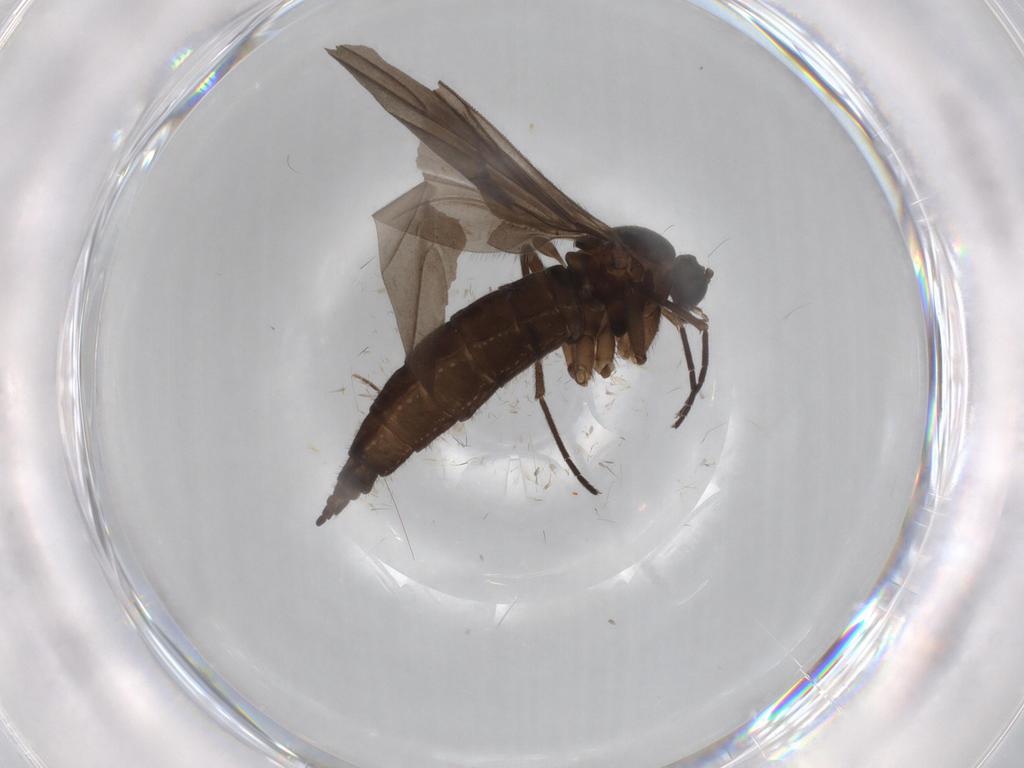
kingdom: Animalia
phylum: Arthropoda
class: Insecta
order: Diptera
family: Sciaridae
